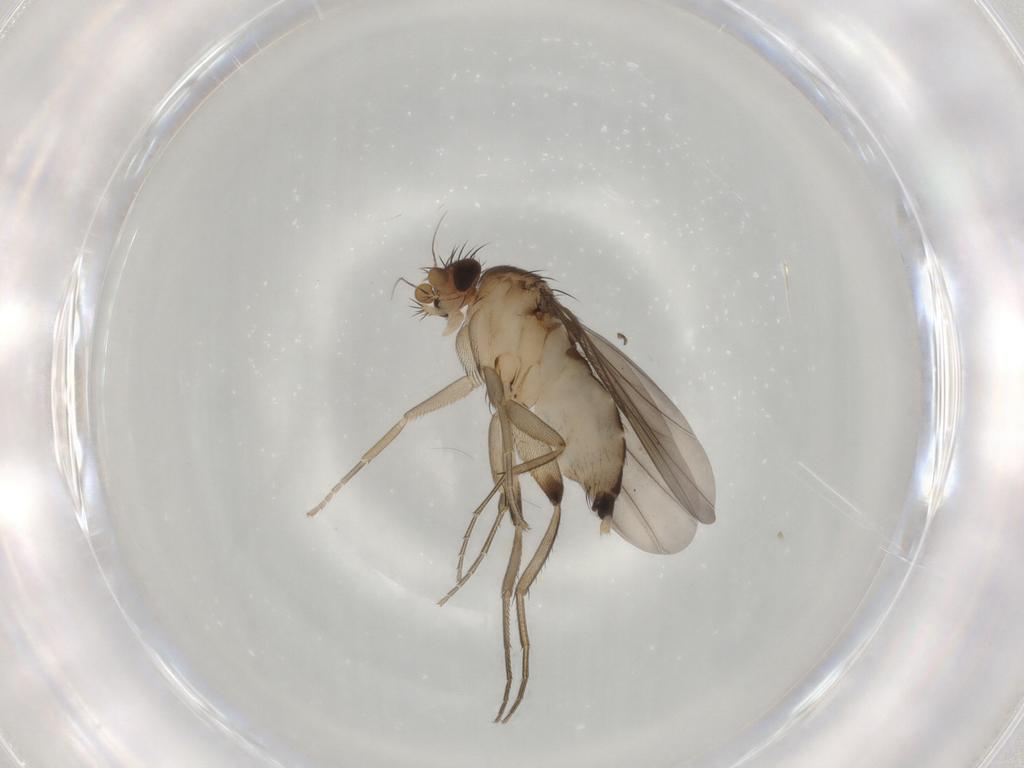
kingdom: Animalia
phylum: Arthropoda
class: Insecta
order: Diptera
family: Phoridae
